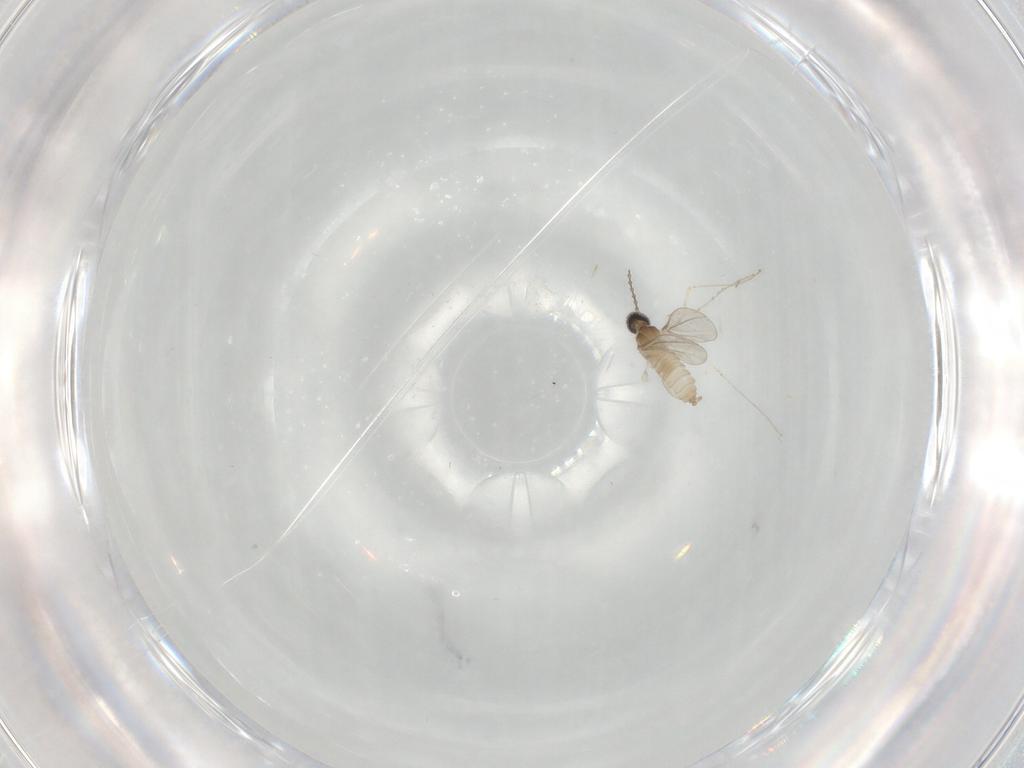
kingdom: Animalia
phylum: Arthropoda
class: Insecta
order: Diptera
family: Cecidomyiidae
